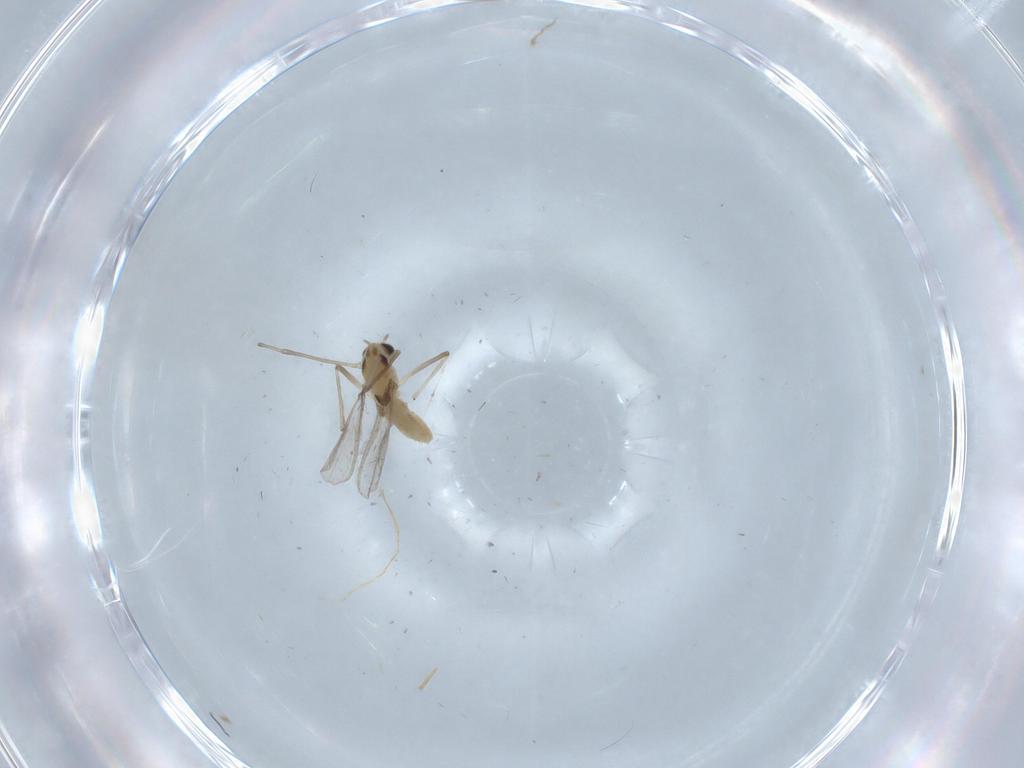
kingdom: Animalia
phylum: Arthropoda
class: Insecta
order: Diptera
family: Chironomidae
